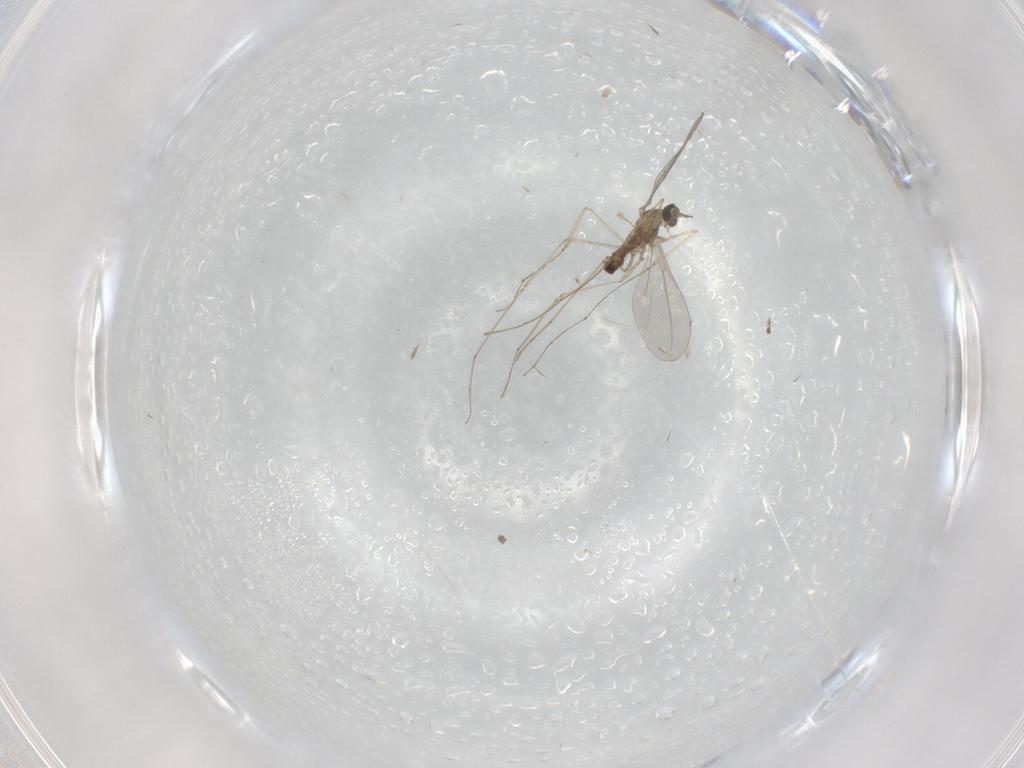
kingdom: Animalia
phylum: Arthropoda
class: Insecta
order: Diptera
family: Cecidomyiidae
